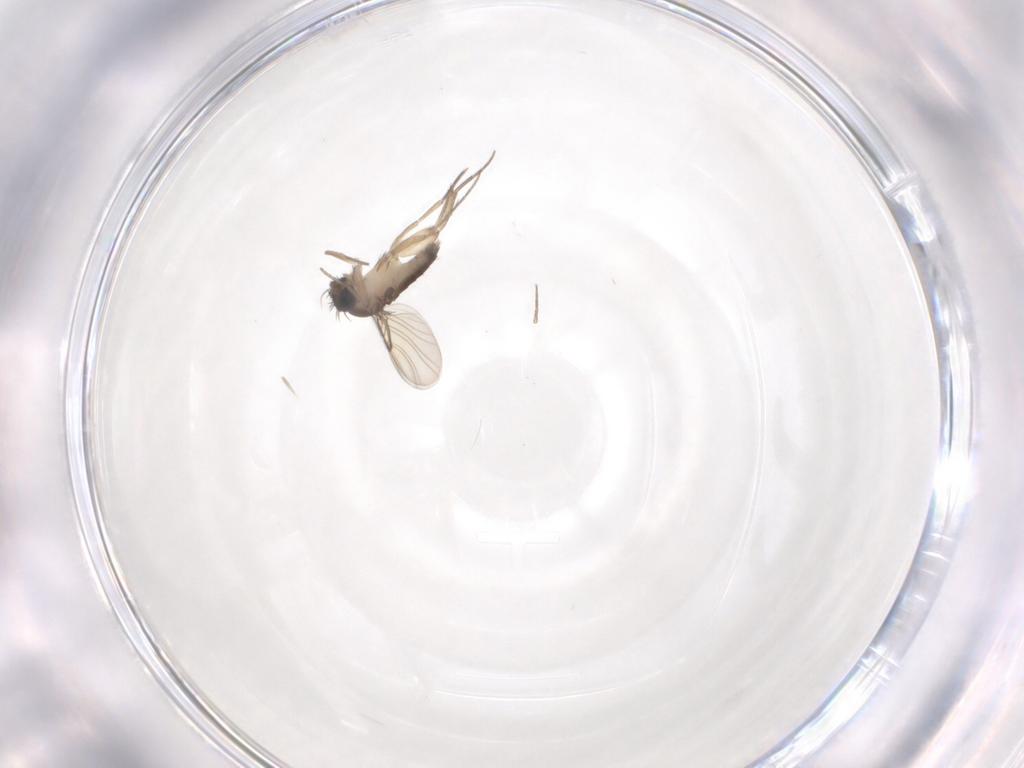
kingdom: Animalia
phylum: Arthropoda
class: Insecta
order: Diptera
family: Phoridae
